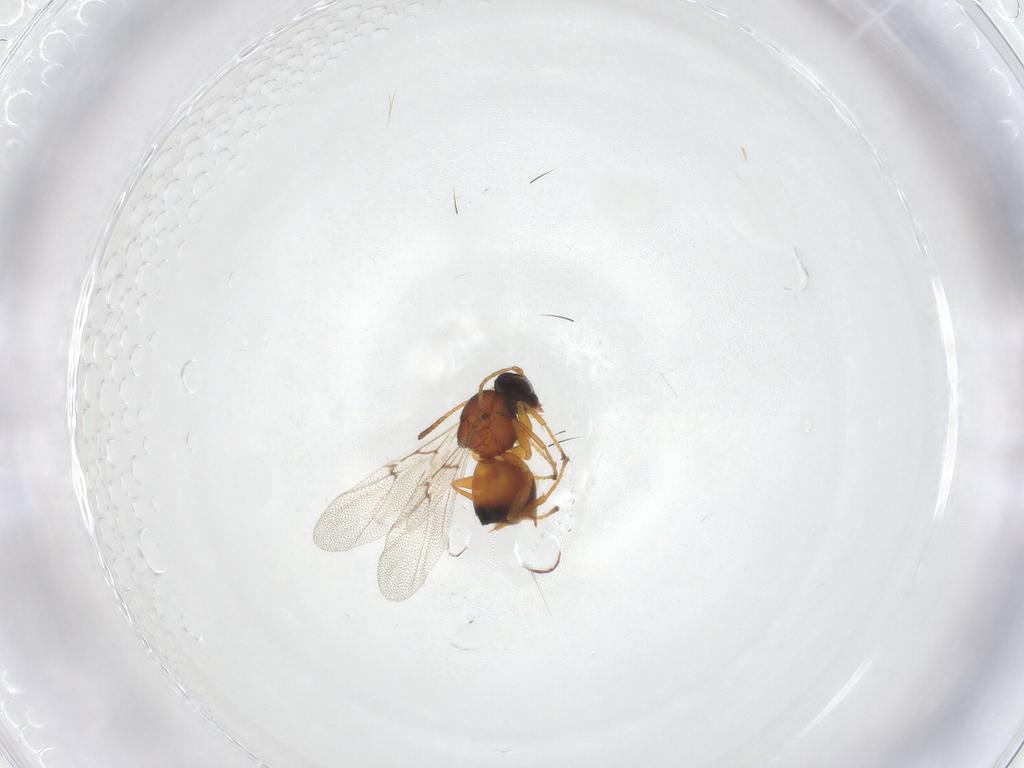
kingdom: Animalia
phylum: Arthropoda
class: Insecta
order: Hymenoptera
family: Cynipidae
